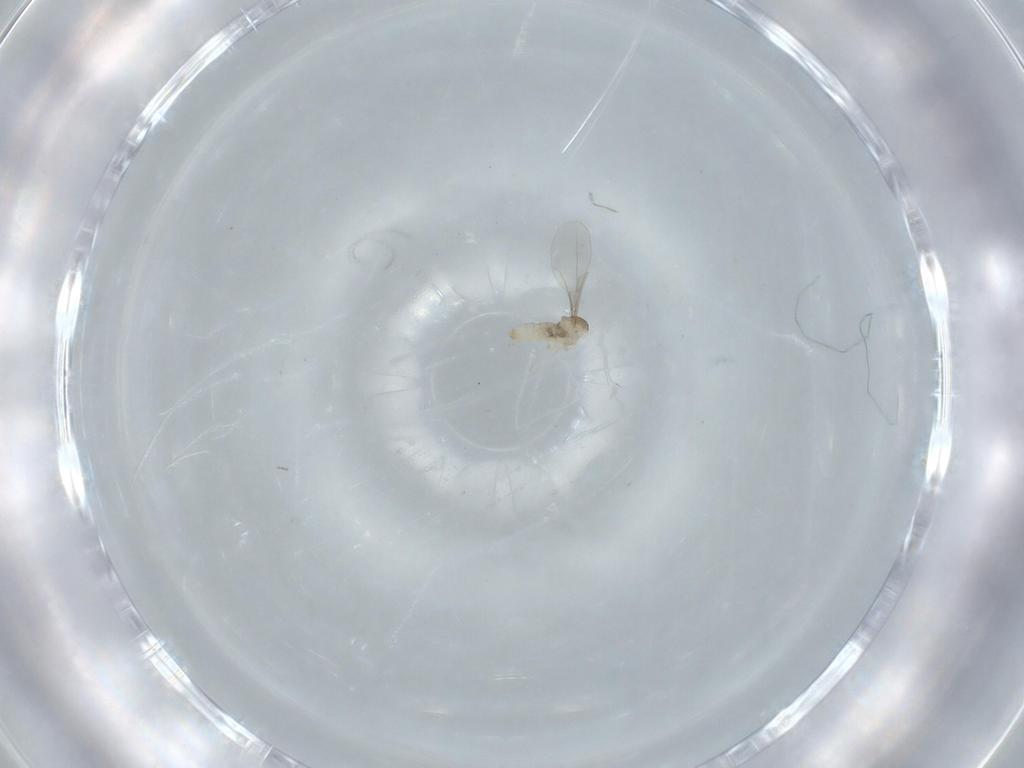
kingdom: Animalia
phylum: Arthropoda
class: Insecta
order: Diptera
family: Cecidomyiidae
